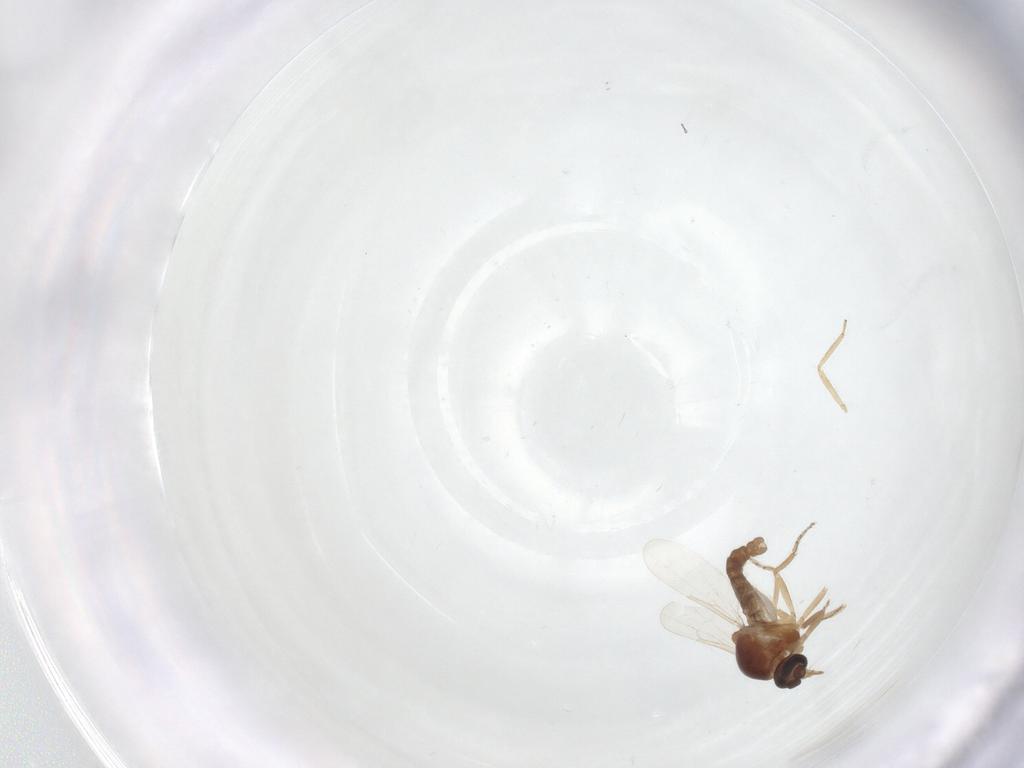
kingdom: Animalia
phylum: Arthropoda
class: Insecta
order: Diptera
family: Ceratopogonidae
